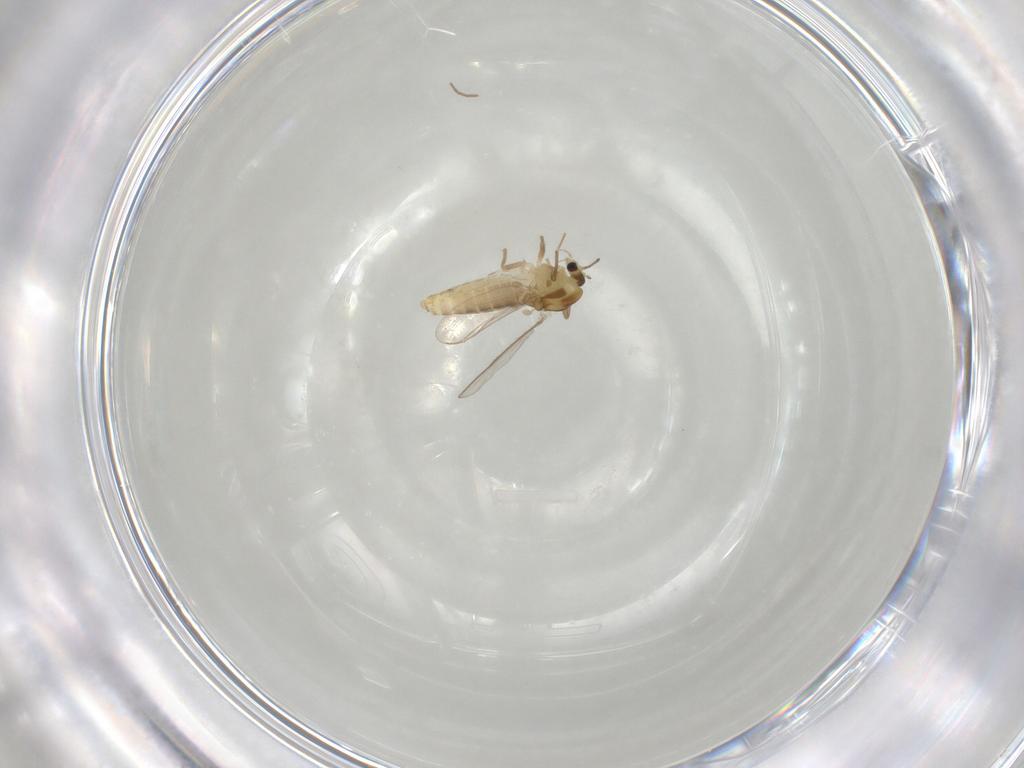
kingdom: Animalia
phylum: Arthropoda
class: Insecta
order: Diptera
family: Chironomidae
